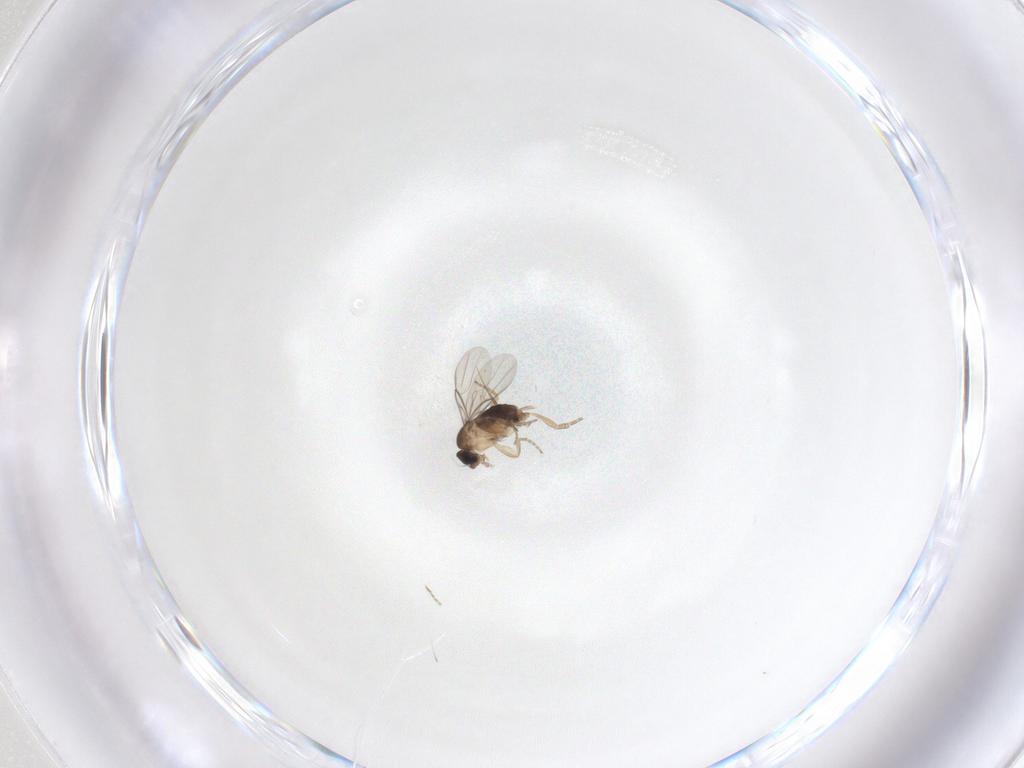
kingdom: Animalia
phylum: Arthropoda
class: Insecta
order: Diptera
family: Phoridae
